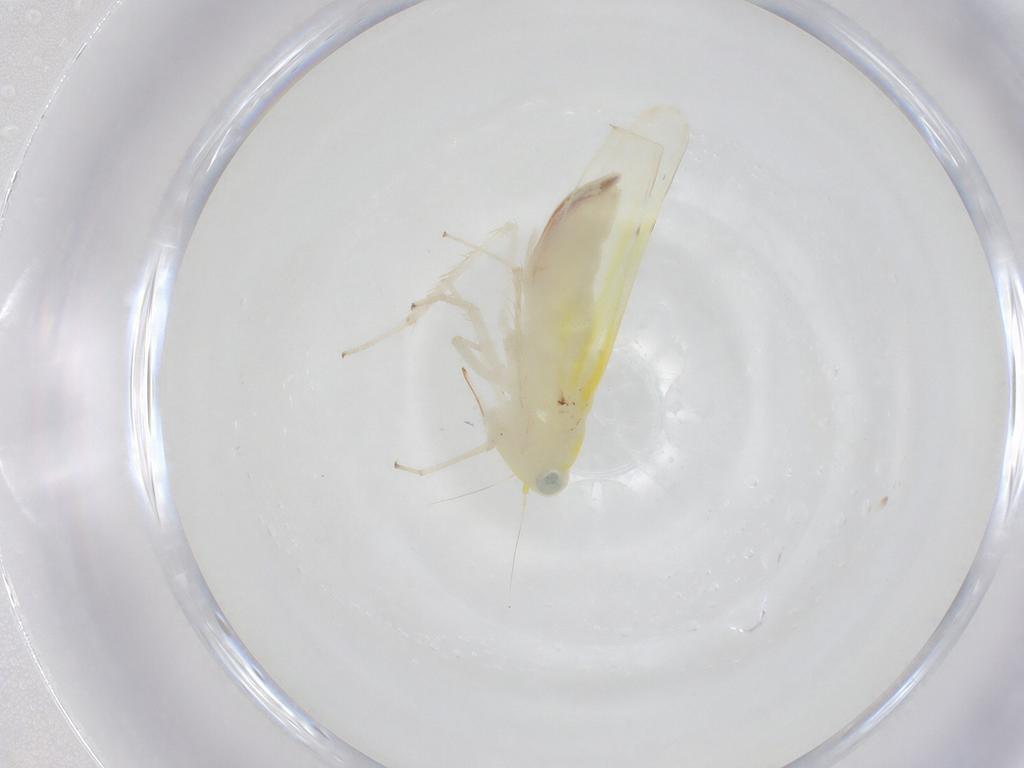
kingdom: Animalia
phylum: Arthropoda
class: Insecta
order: Hemiptera
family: Cicadellidae
